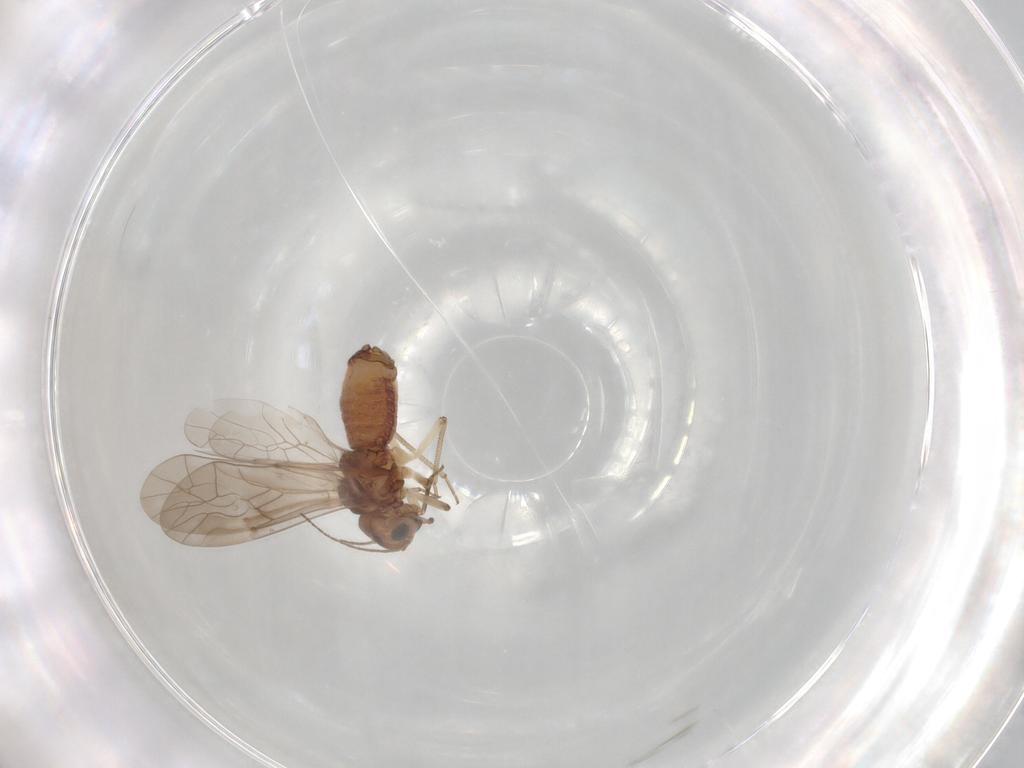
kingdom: Animalia
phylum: Arthropoda
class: Insecta
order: Psocodea
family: Peripsocidae
